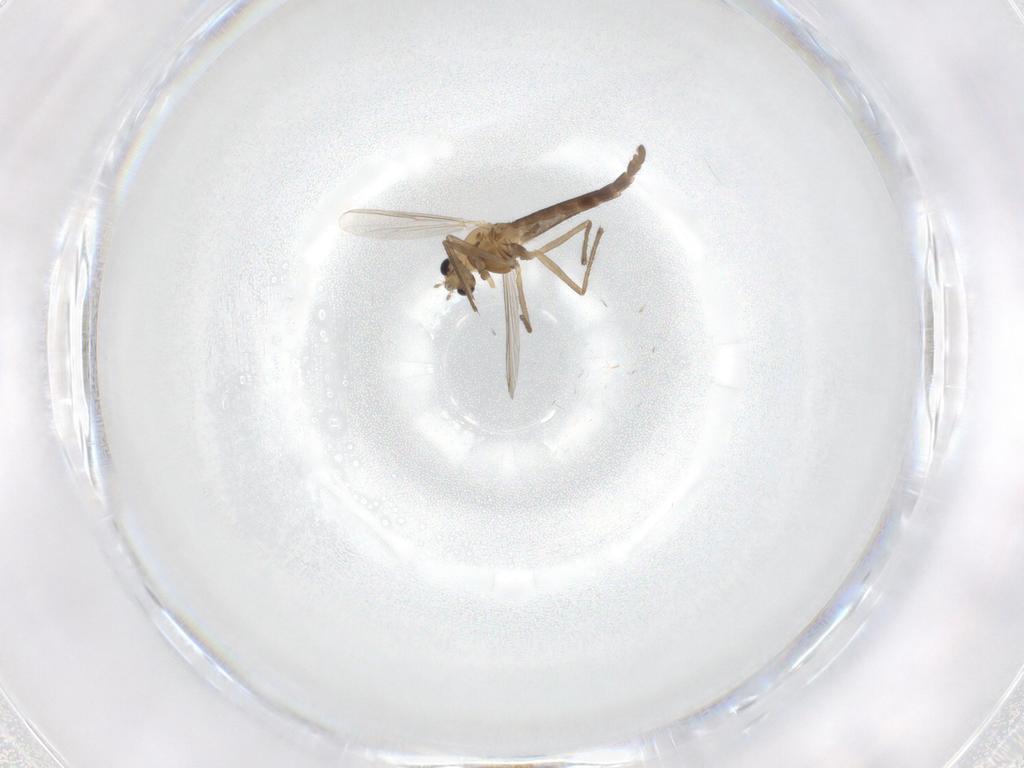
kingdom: Animalia
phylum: Arthropoda
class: Insecta
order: Diptera
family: Chironomidae
